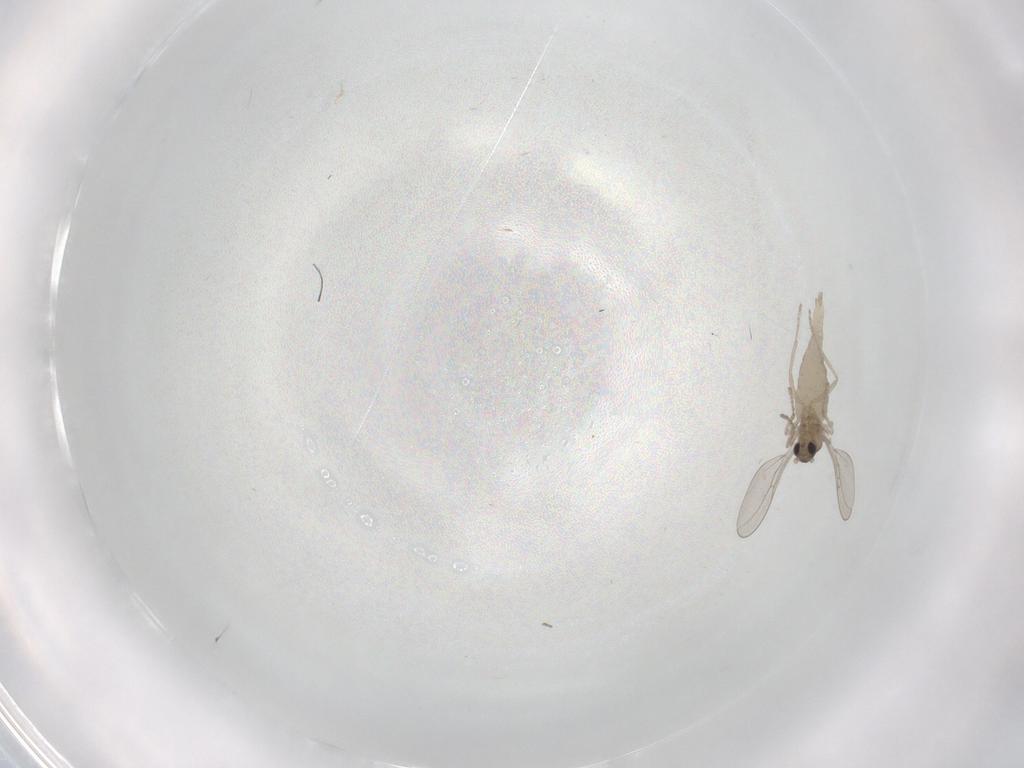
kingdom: Animalia
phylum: Arthropoda
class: Insecta
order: Diptera
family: Cecidomyiidae
